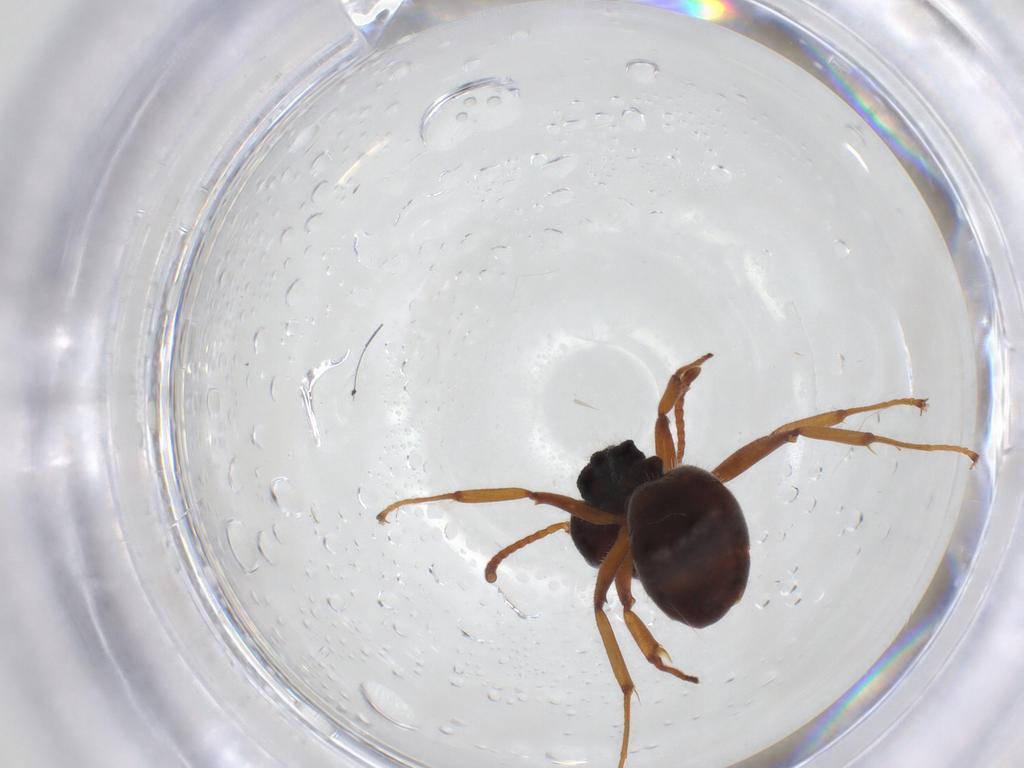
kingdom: Animalia
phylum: Arthropoda
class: Insecta
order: Hymenoptera
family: Formicidae
